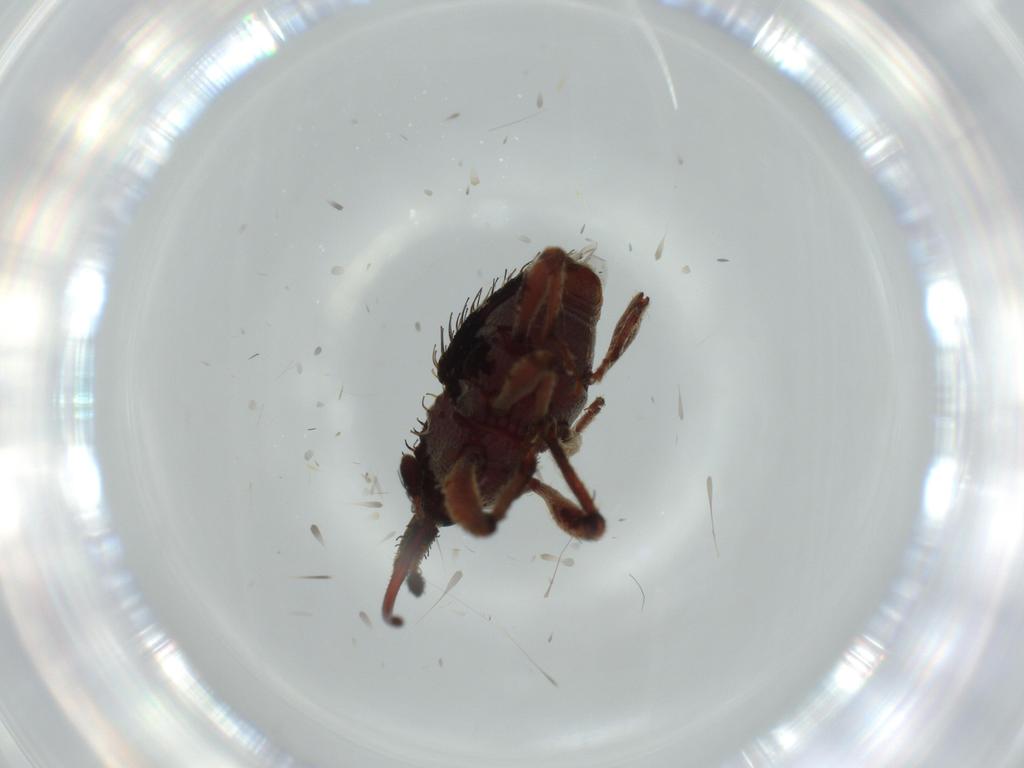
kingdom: Animalia
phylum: Arthropoda
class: Insecta
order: Coleoptera
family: Curculionidae
